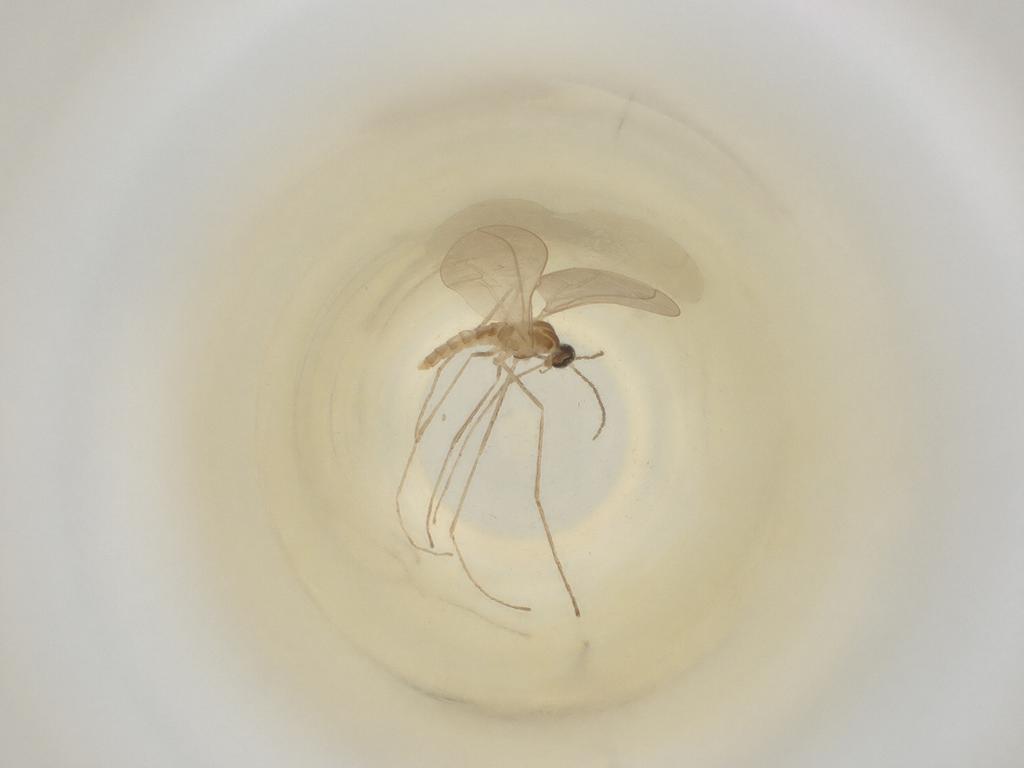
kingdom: Animalia
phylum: Arthropoda
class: Insecta
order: Diptera
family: Cecidomyiidae
